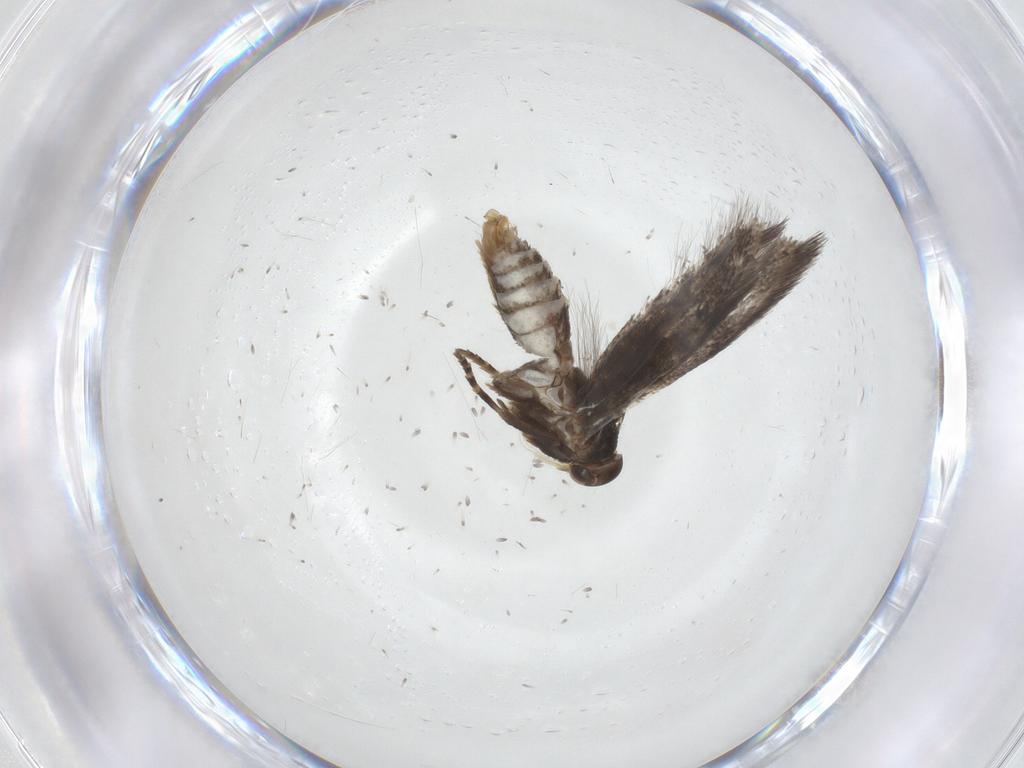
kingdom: Animalia
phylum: Arthropoda
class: Insecta
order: Lepidoptera
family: Elachistidae
